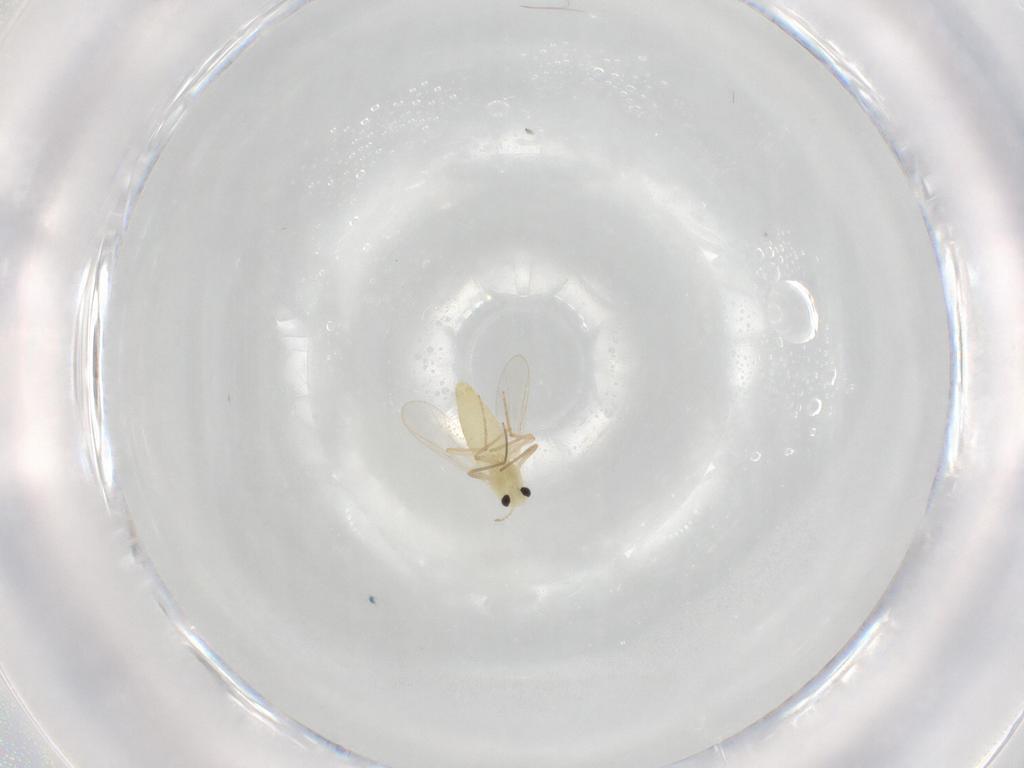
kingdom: Animalia
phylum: Arthropoda
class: Insecta
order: Diptera
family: Chironomidae
